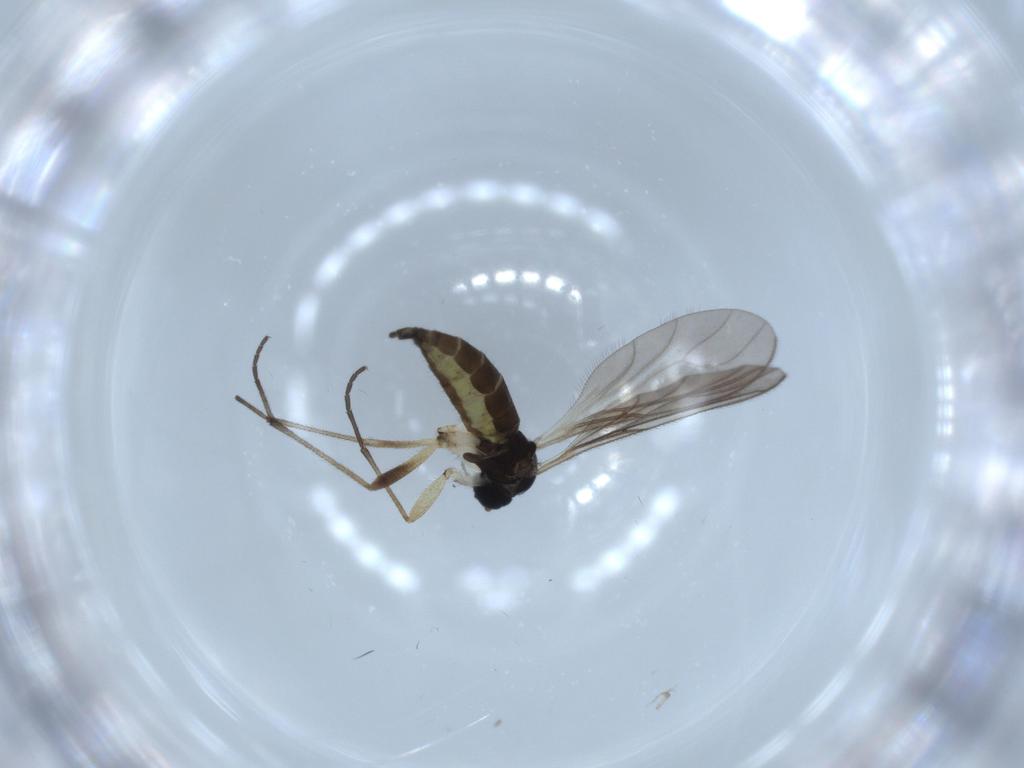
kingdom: Animalia
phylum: Arthropoda
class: Insecta
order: Diptera
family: Sciaridae
